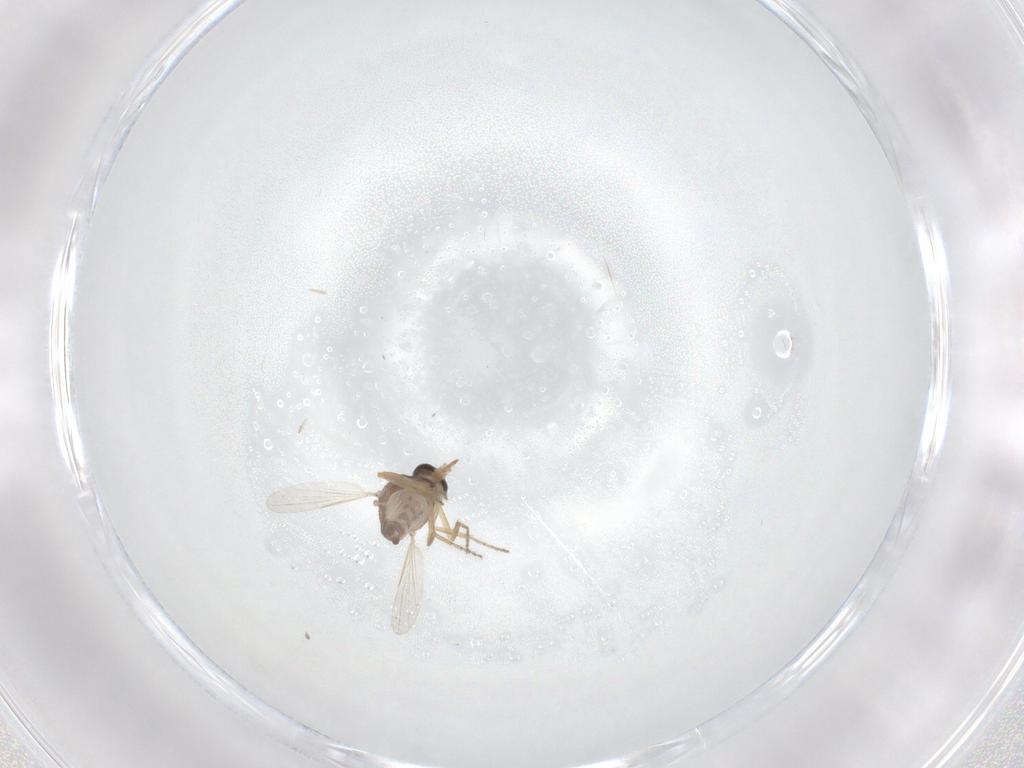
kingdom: Animalia
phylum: Arthropoda
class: Insecta
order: Diptera
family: Ceratopogonidae
